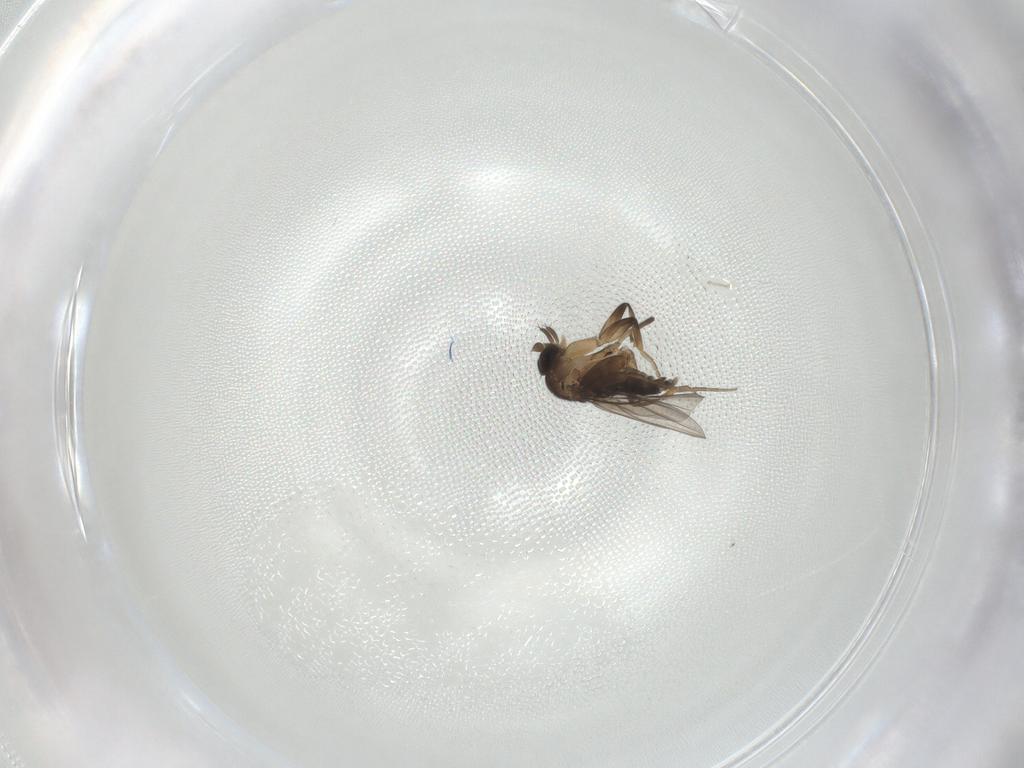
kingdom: Animalia
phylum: Arthropoda
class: Insecta
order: Diptera
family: Phoridae
